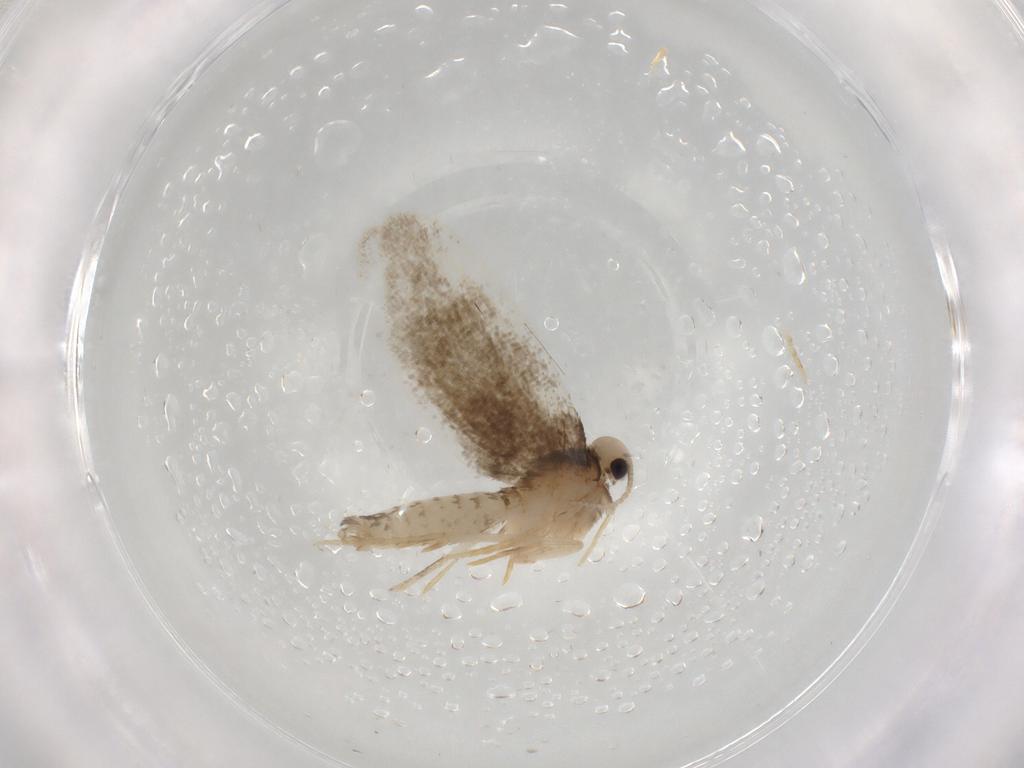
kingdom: Animalia
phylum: Arthropoda
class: Insecta
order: Lepidoptera
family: Psychidae
